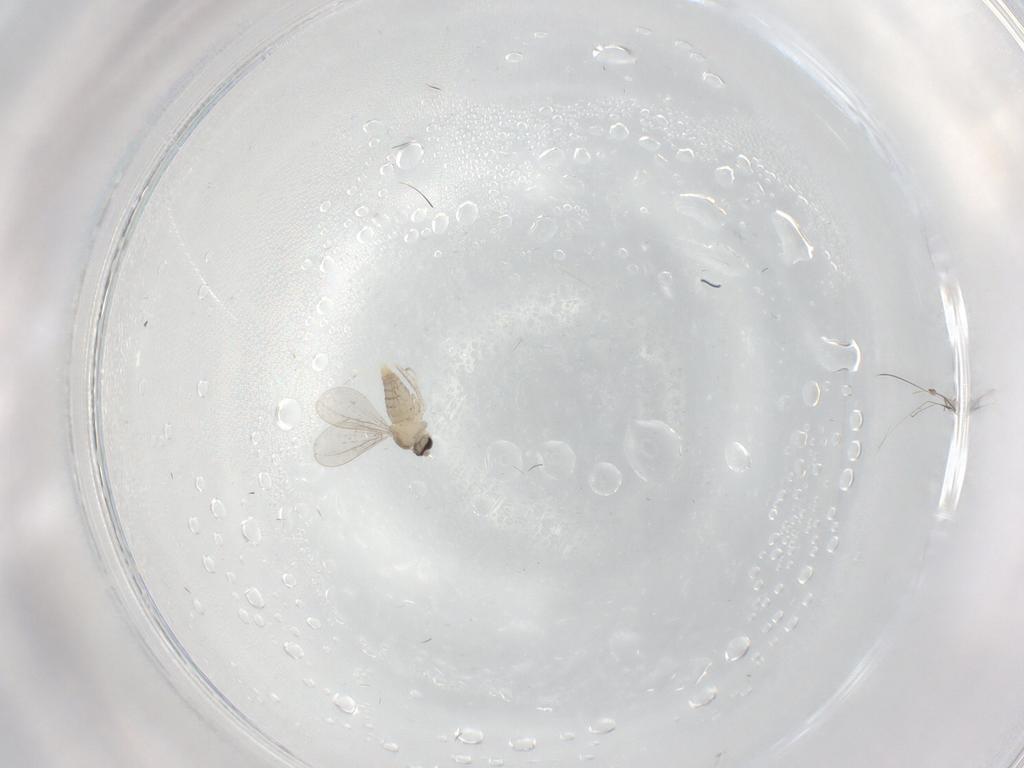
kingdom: Animalia
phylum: Arthropoda
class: Insecta
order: Diptera
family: Cecidomyiidae
